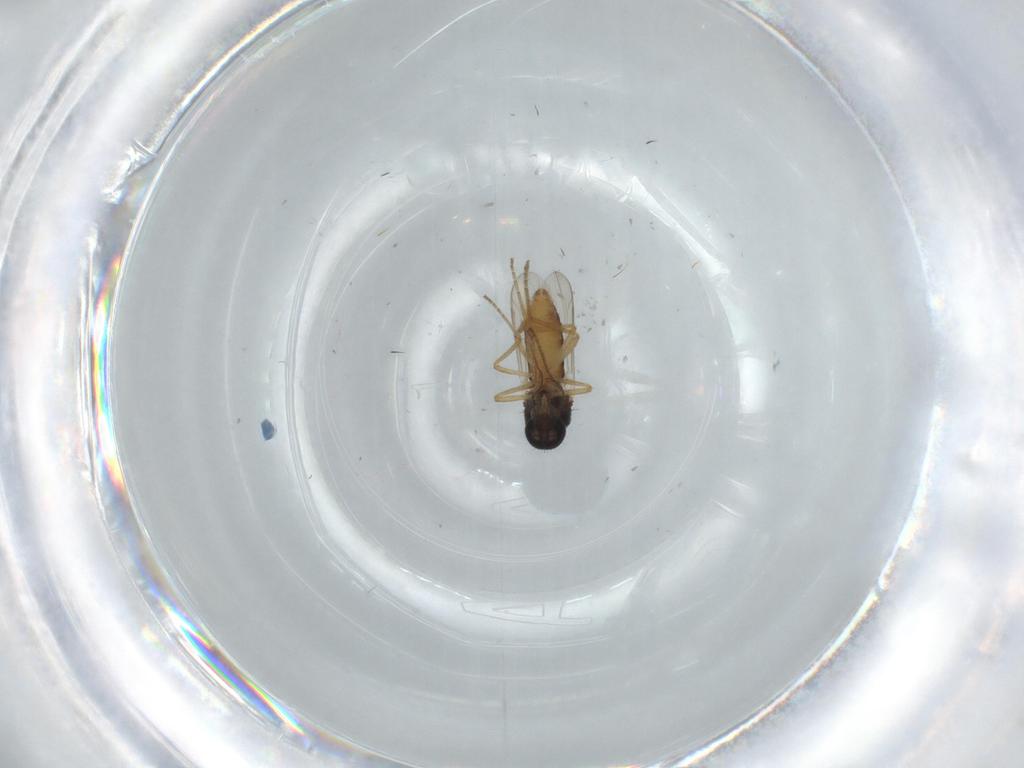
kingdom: Animalia
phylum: Arthropoda
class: Insecta
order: Diptera
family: Ceratopogonidae
